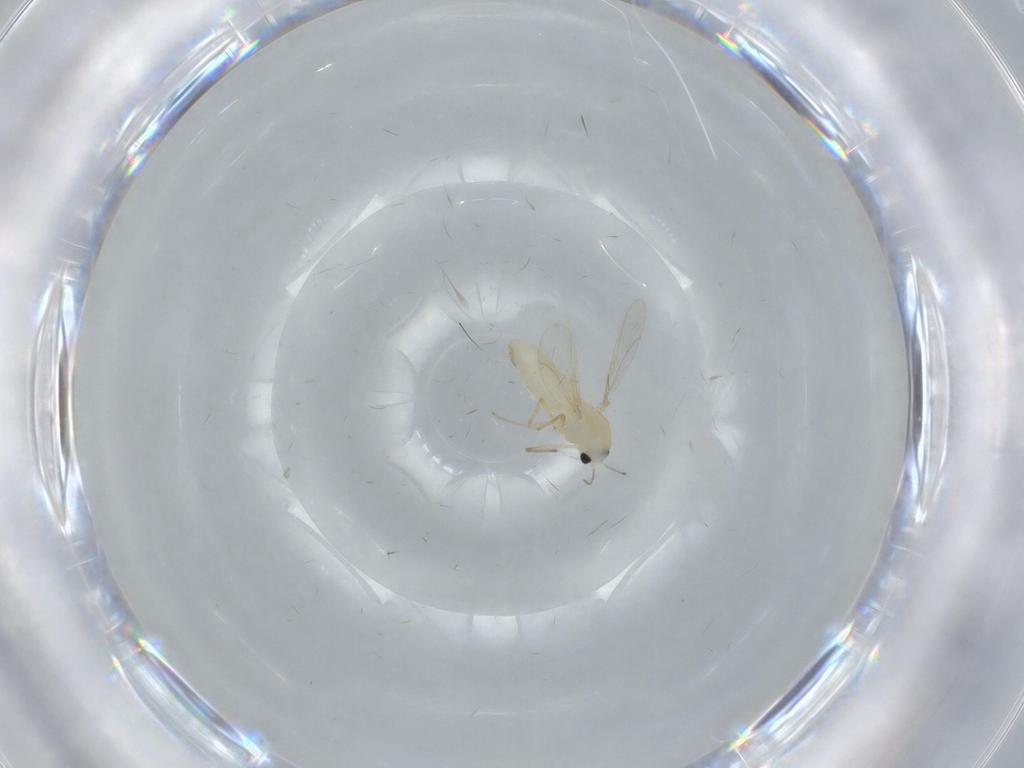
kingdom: Animalia
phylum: Arthropoda
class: Insecta
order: Diptera
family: Chironomidae
